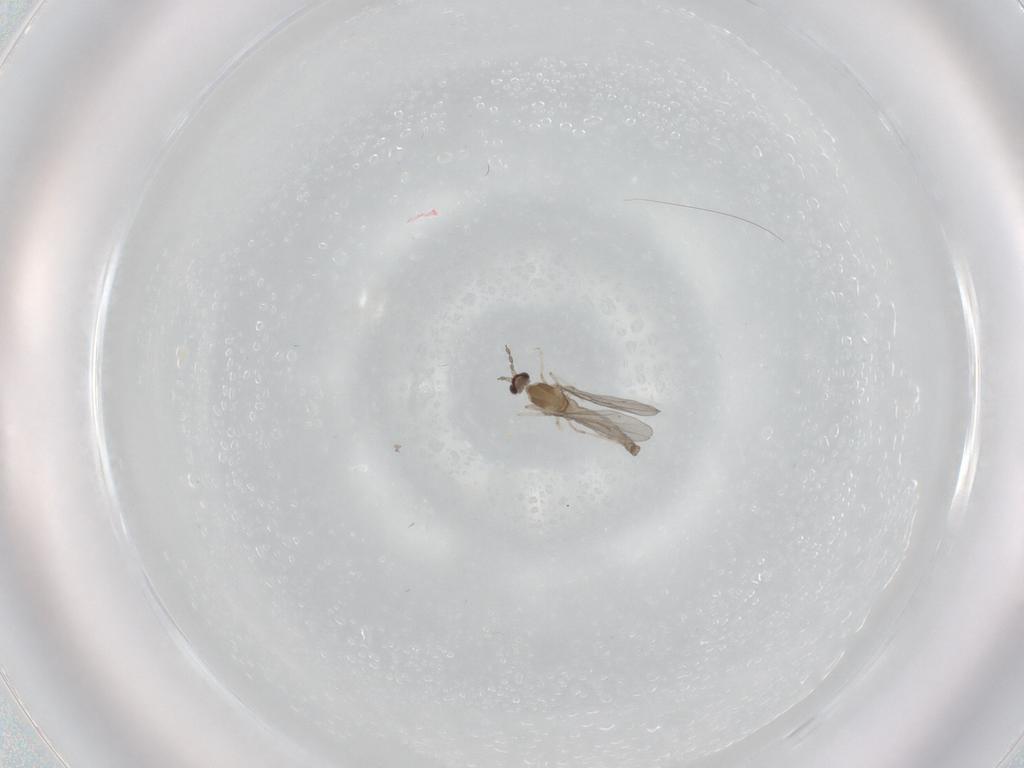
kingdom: Animalia
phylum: Arthropoda
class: Insecta
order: Diptera
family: Cecidomyiidae
